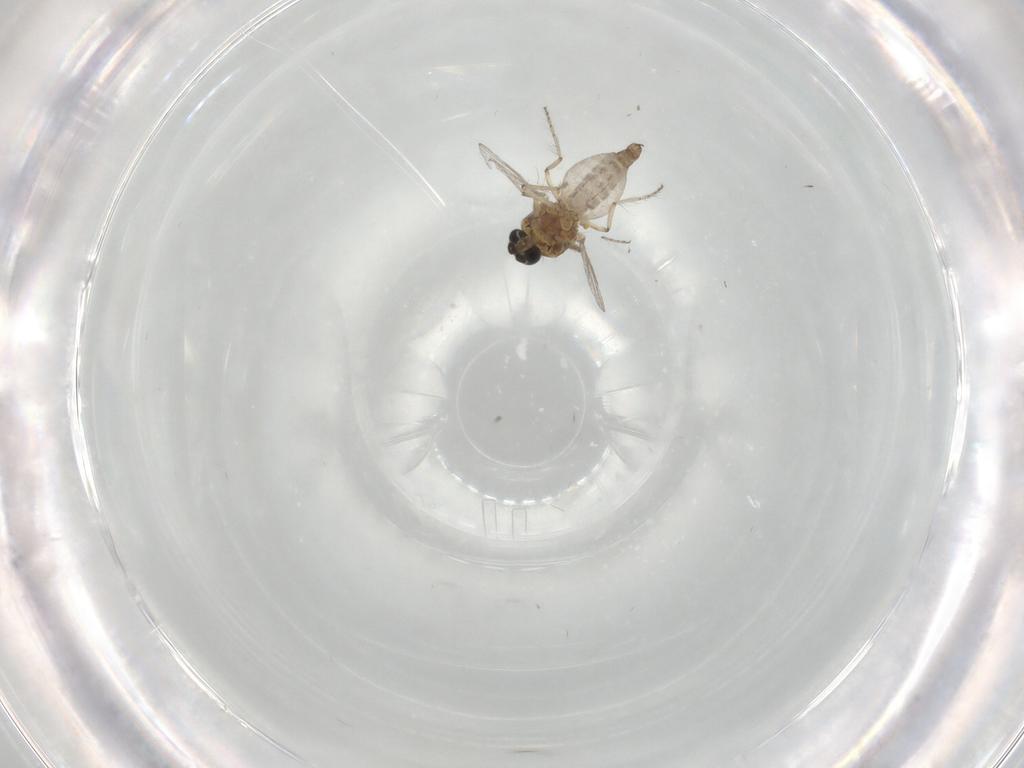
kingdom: Animalia
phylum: Arthropoda
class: Insecta
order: Diptera
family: Ceratopogonidae
